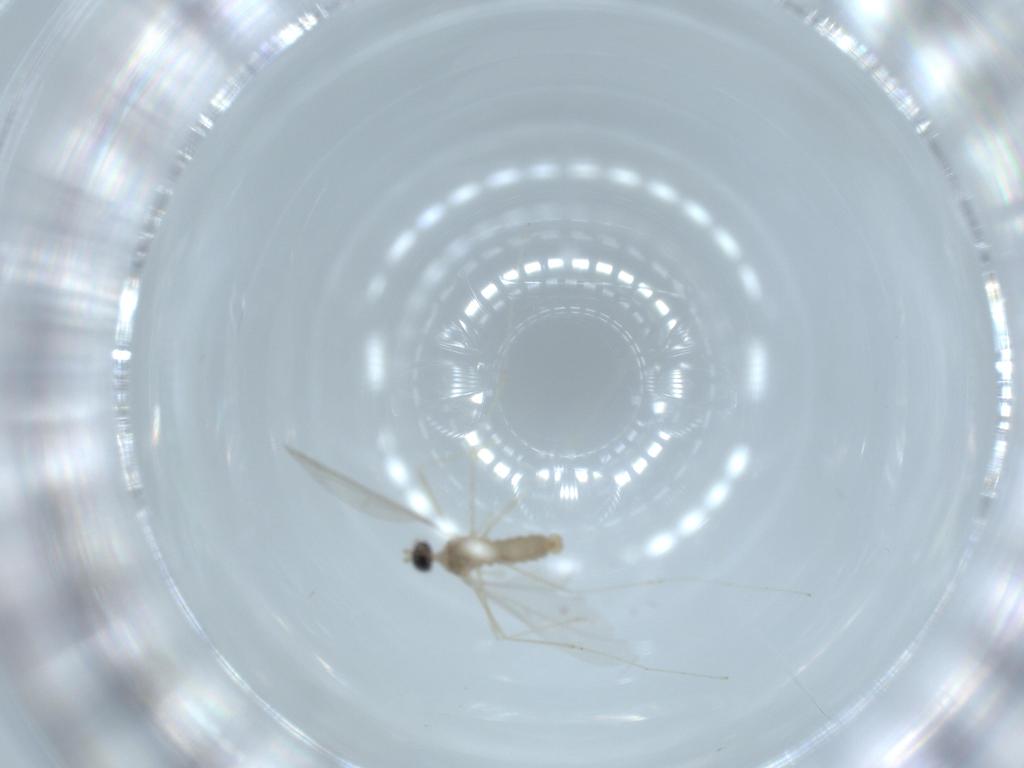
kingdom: Animalia
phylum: Arthropoda
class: Insecta
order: Diptera
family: Cecidomyiidae
